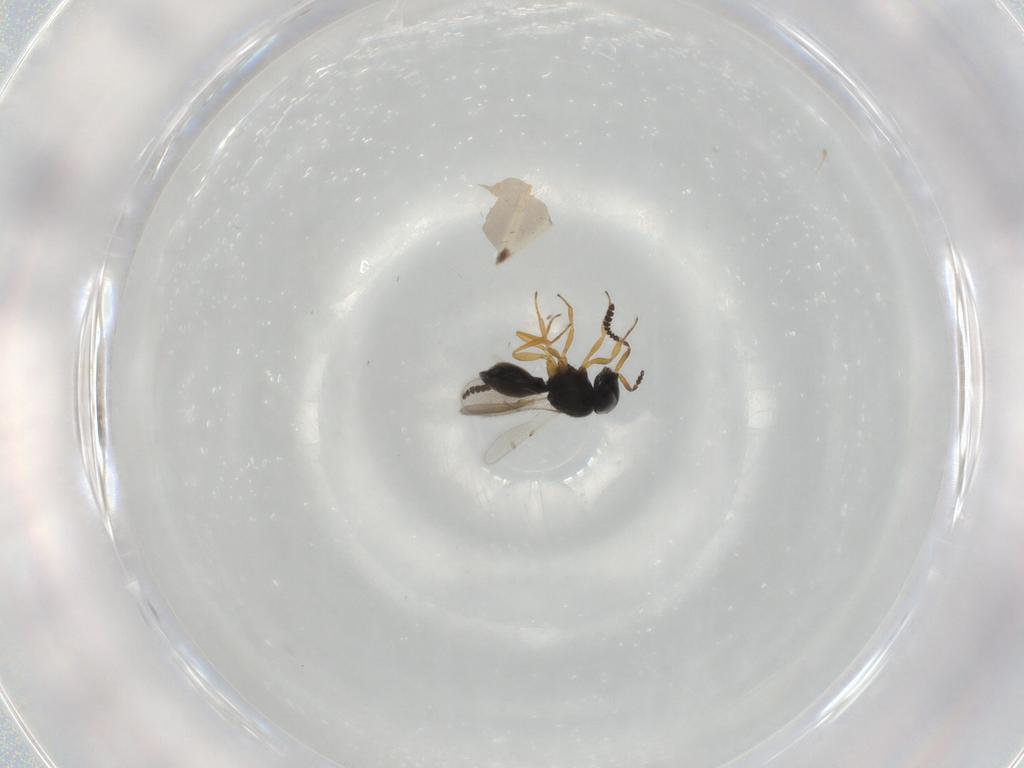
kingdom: Animalia
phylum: Arthropoda
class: Insecta
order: Hymenoptera
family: Scelionidae
